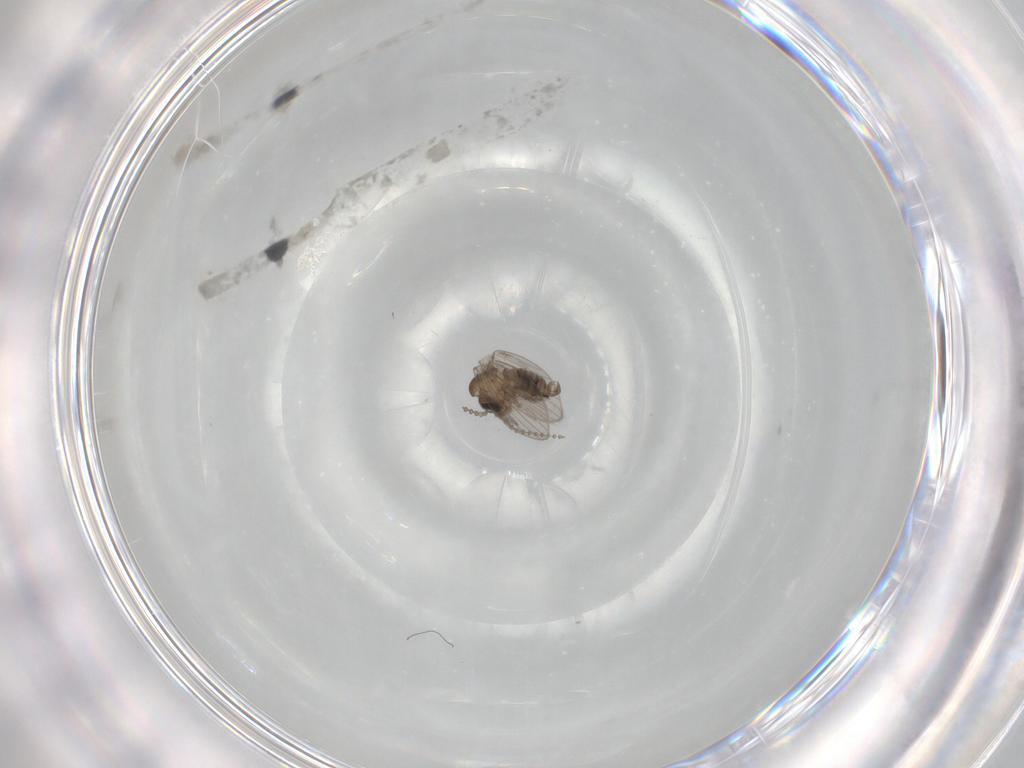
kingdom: Animalia
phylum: Arthropoda
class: Insecta
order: Diptera
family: Psychodidae
